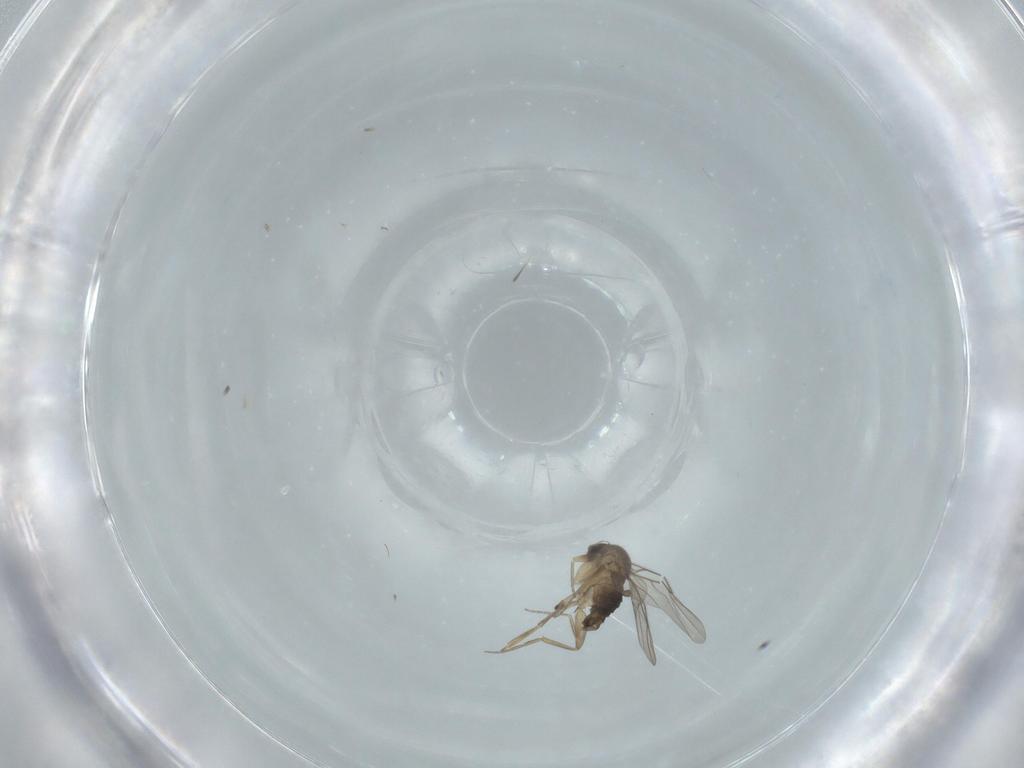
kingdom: Animalia
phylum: Arthropoda
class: Insecta
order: Diptera
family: Phoridae
